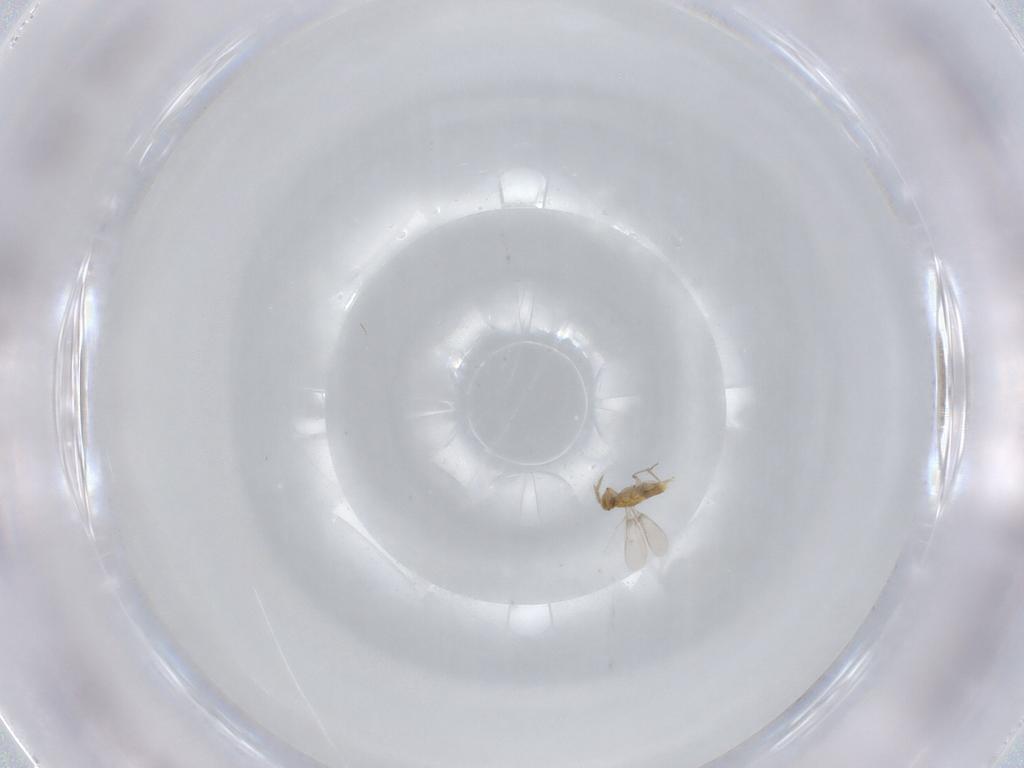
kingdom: Animalia
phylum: Arthropoda
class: Insecta
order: Hymenoptera
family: Aphelinidae
